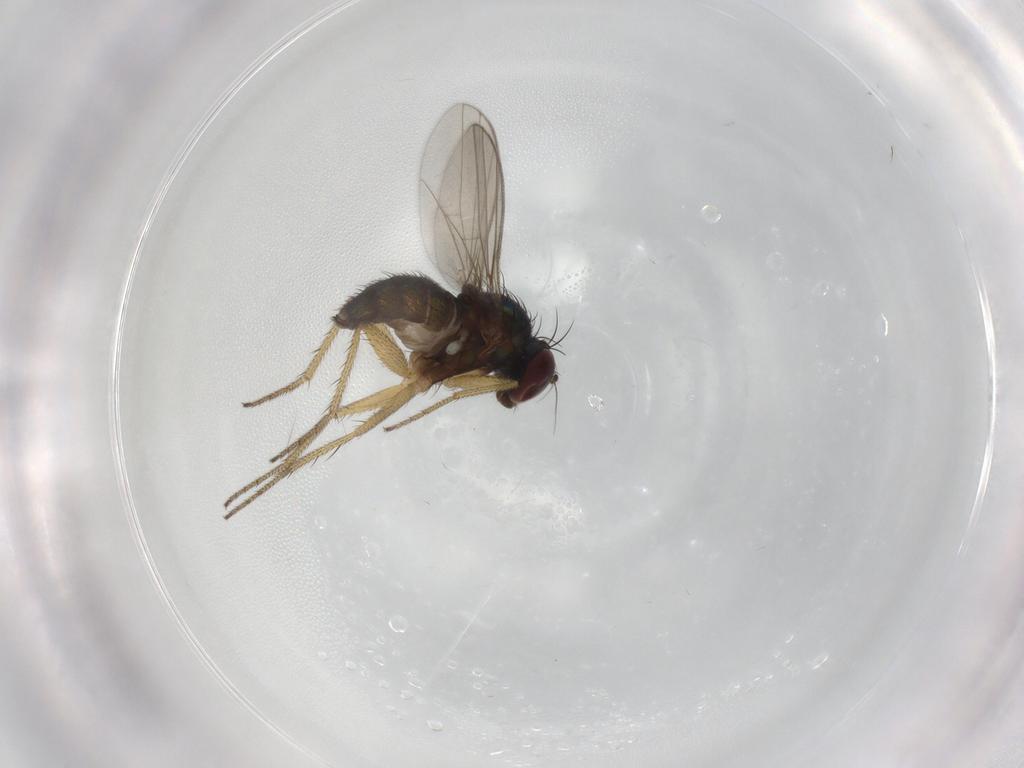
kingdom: Animalia
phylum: Arthropoda
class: Insecta
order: Diptera
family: Dolichopodidae
